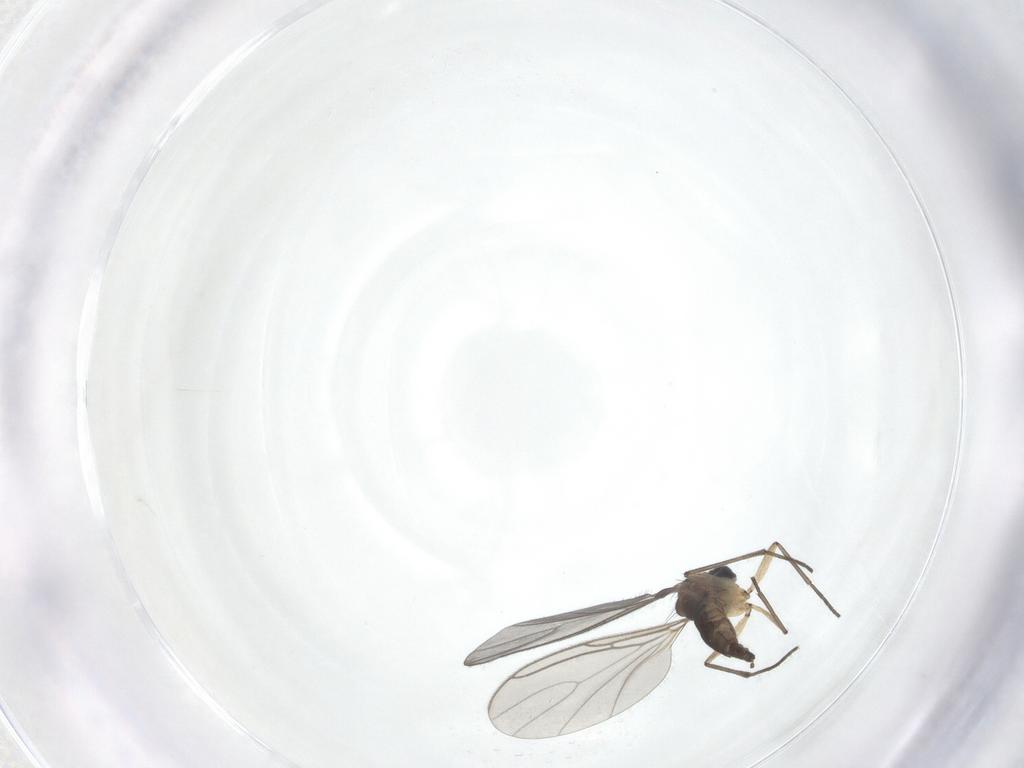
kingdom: Animalia
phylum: Arthropoda
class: Insecta
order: Diptera
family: Sciaridae
